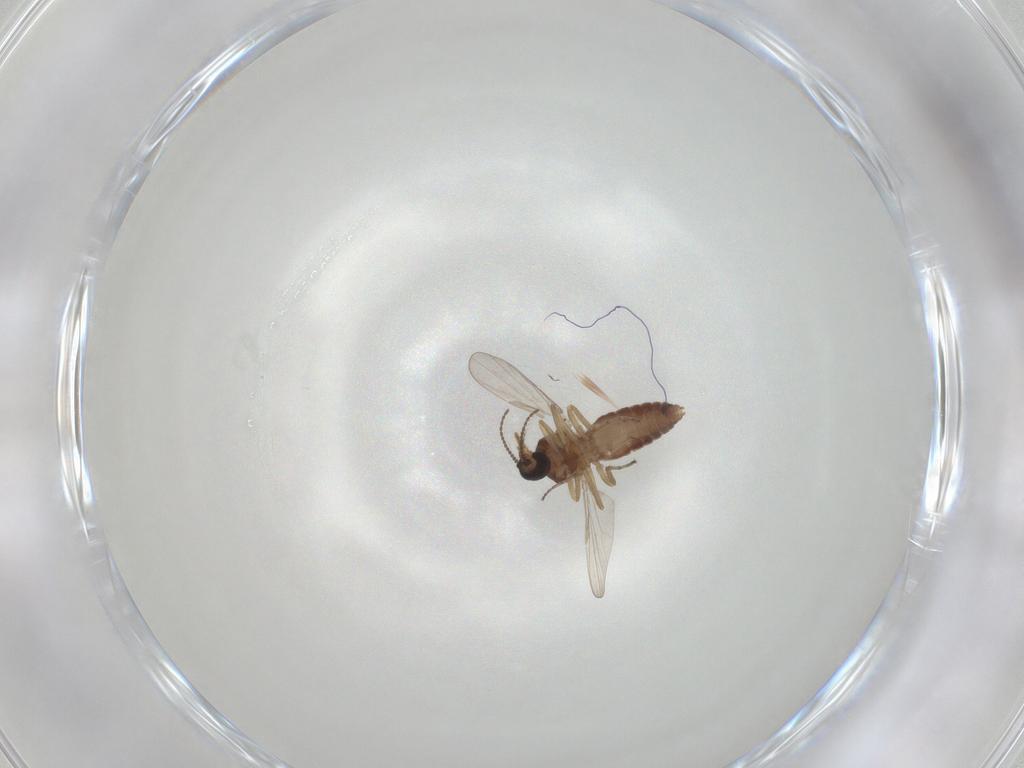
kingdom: Animalia
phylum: Arthropoda
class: Insecta
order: Diptera
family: Ceratopogonidae
